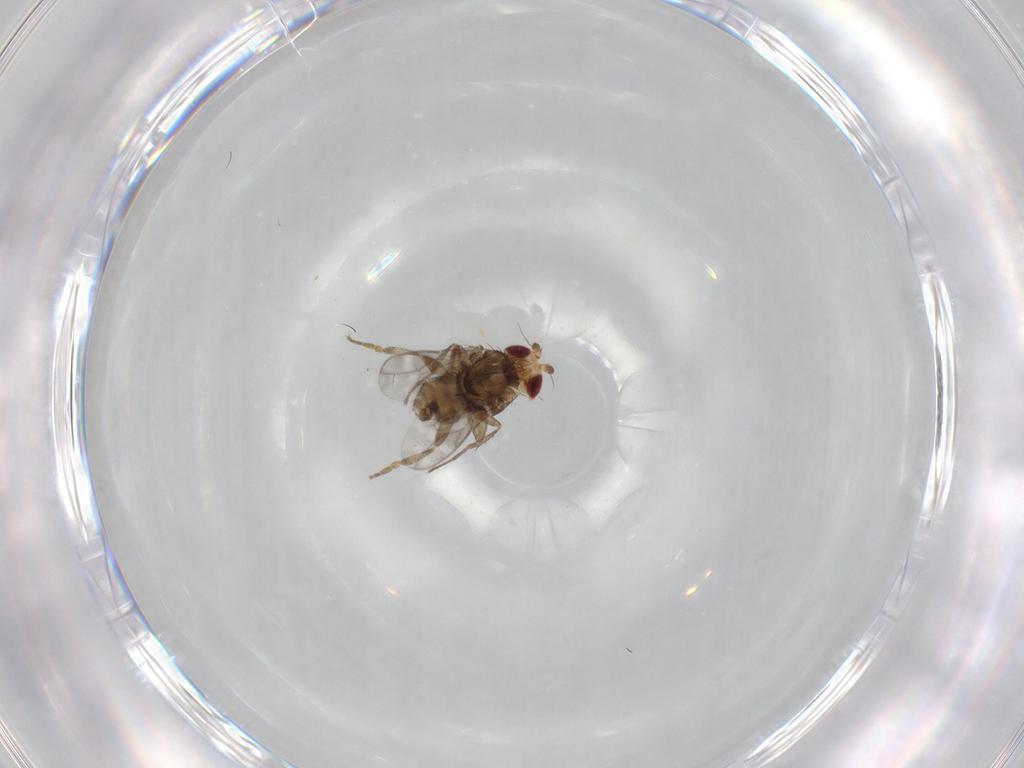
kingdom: Animalia
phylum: Arthropoda
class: Insecta
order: Diptera
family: Sphaeroceridae
